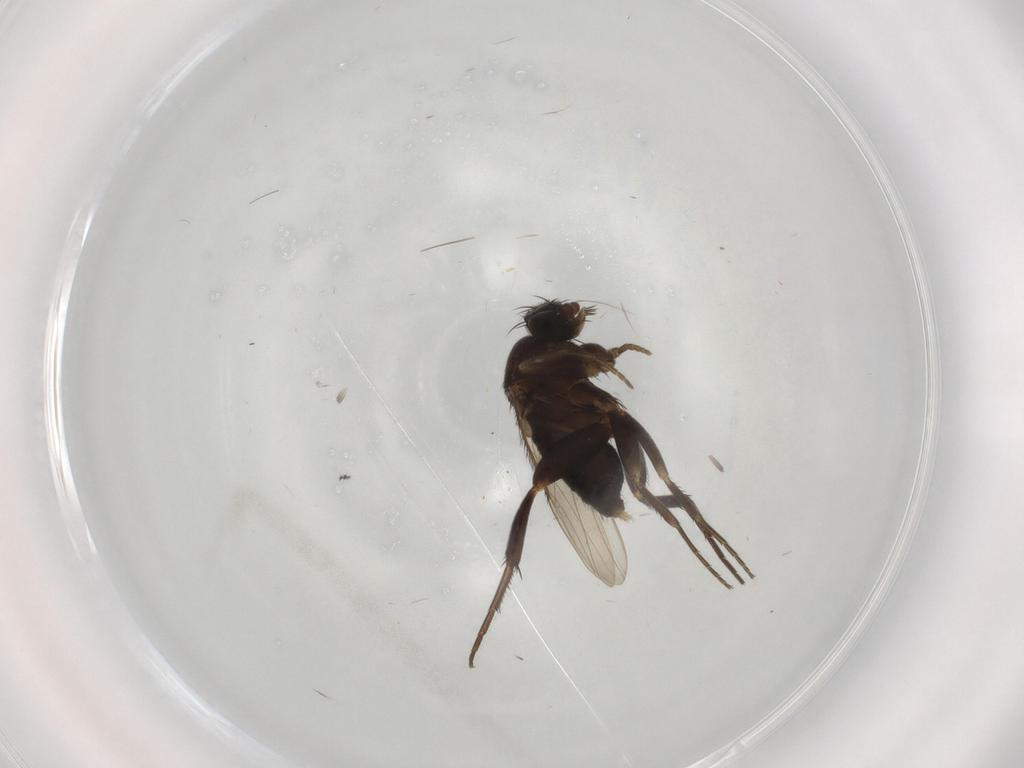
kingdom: Animalia
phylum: Arthropoda
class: Insecta
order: Diptera
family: Phoridae
